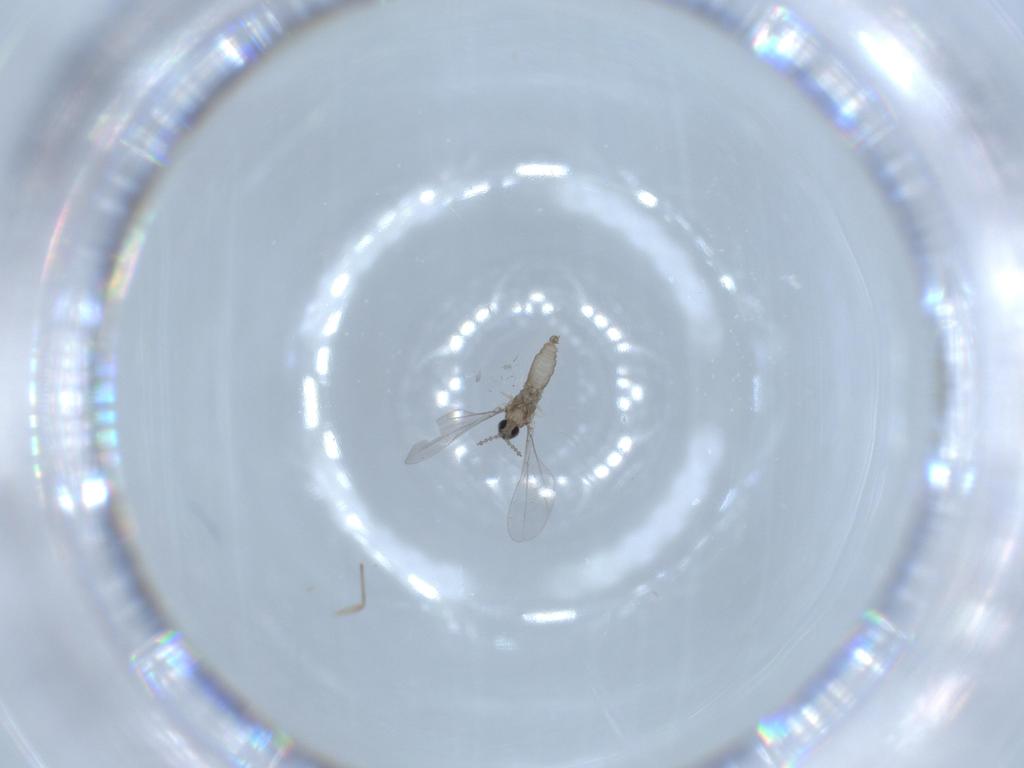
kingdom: Animalia
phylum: Arthropoda
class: Insecta
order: Diptera
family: Cecidomyiidae
